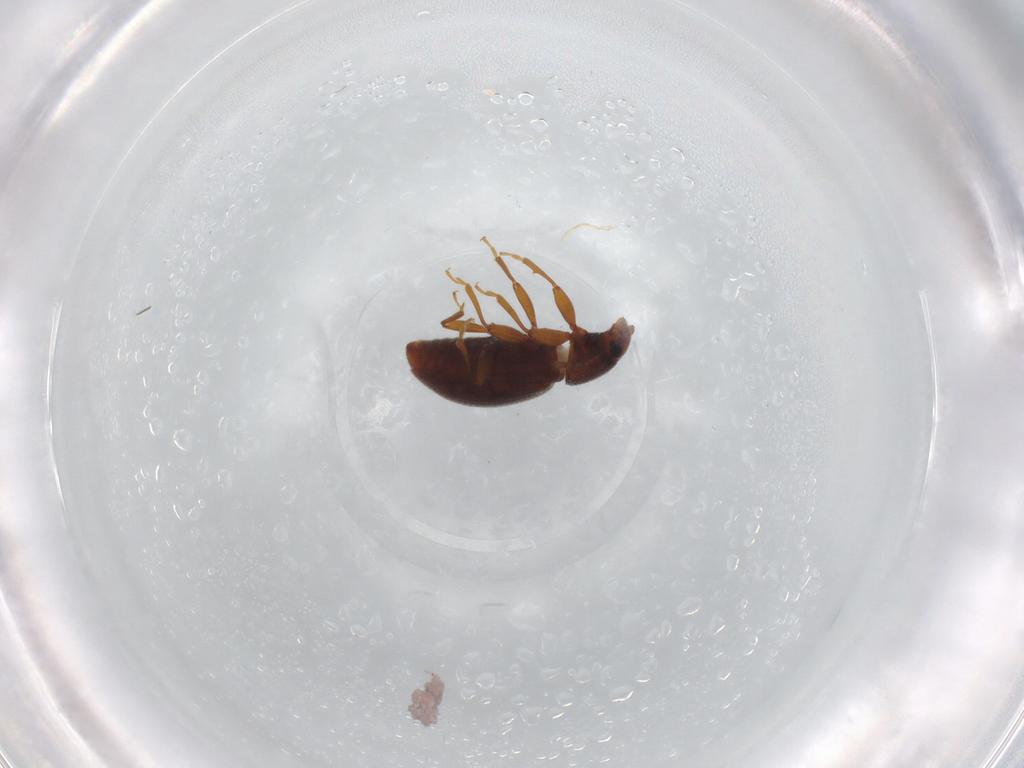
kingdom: Animalia
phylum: Arthropoda
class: Insecta
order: Coleoptera
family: Latridiidae
